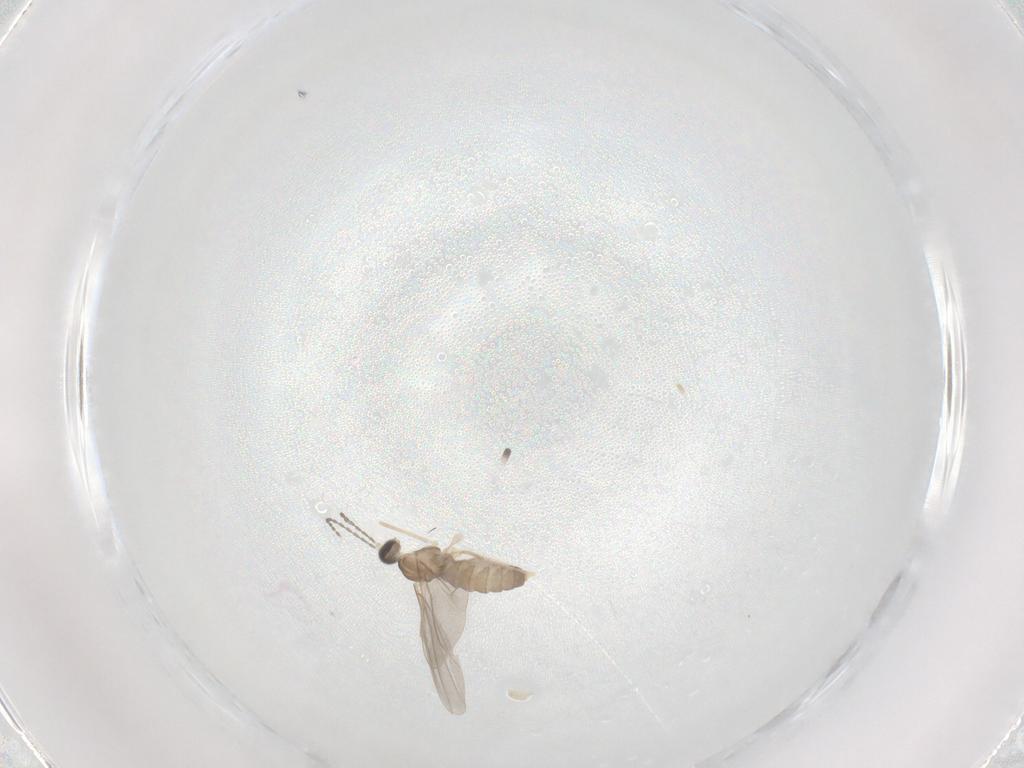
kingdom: Animalia
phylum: Arthropoda
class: Insecta
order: Diptera
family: Cecidomyiidae
